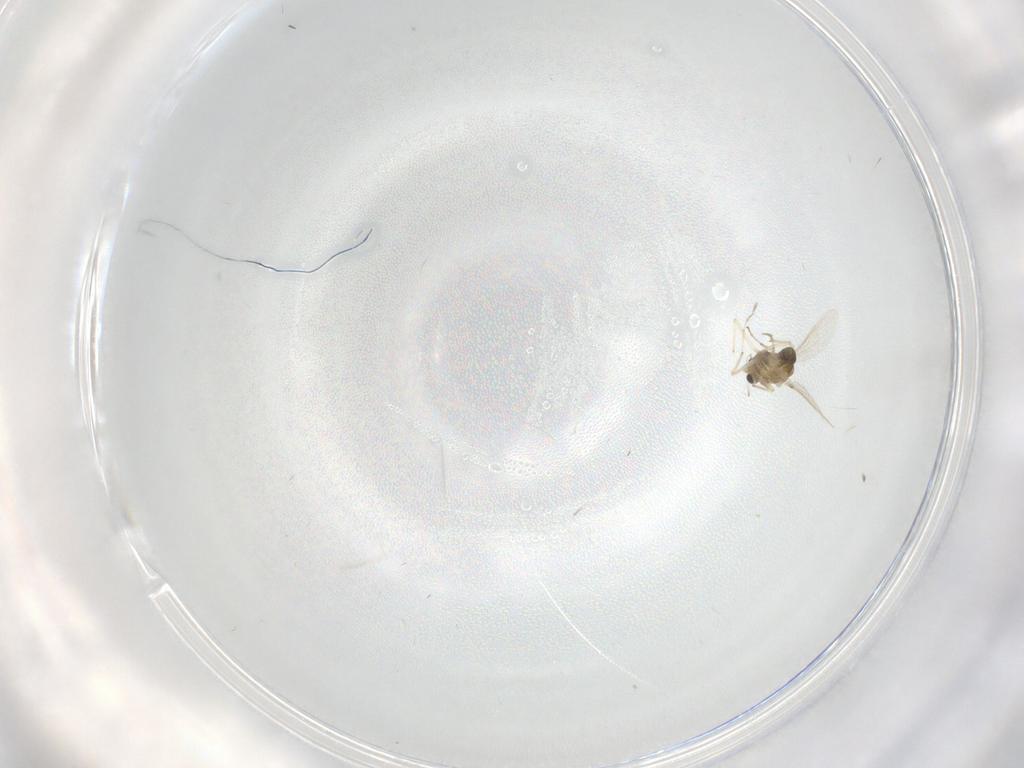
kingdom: Animalia
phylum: Arthropoda
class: Insecta
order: Diptera
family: Chironomidae
